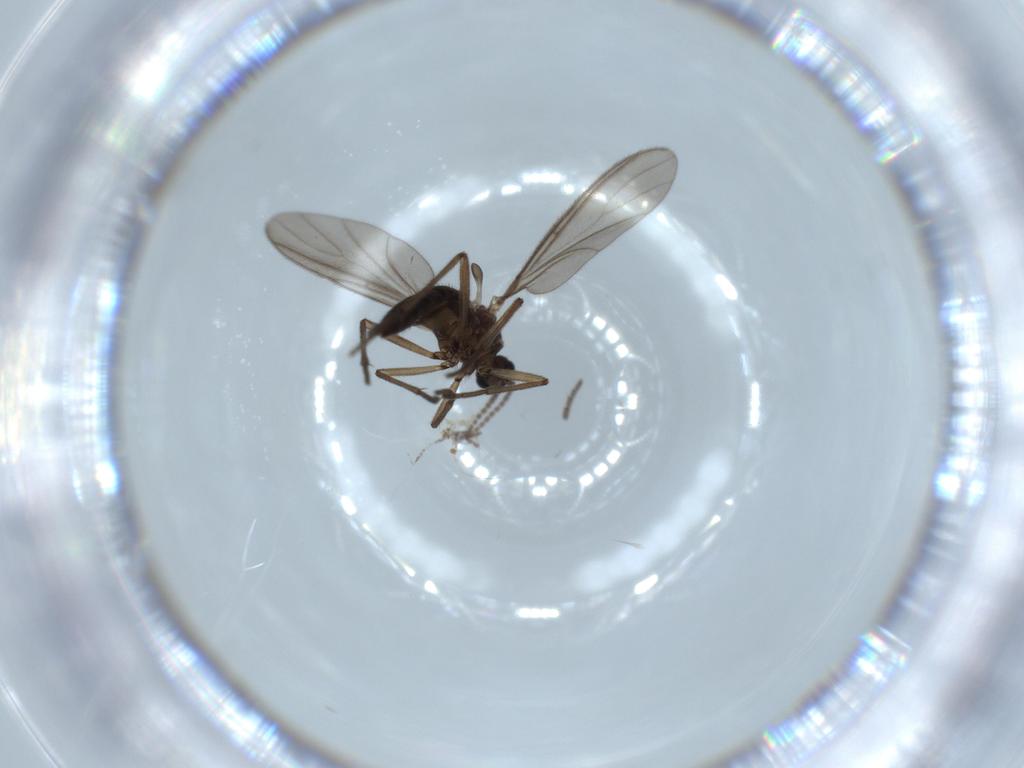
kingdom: Animalia
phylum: Arthropoda
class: Insecta
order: Diptera
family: Sciaridae
